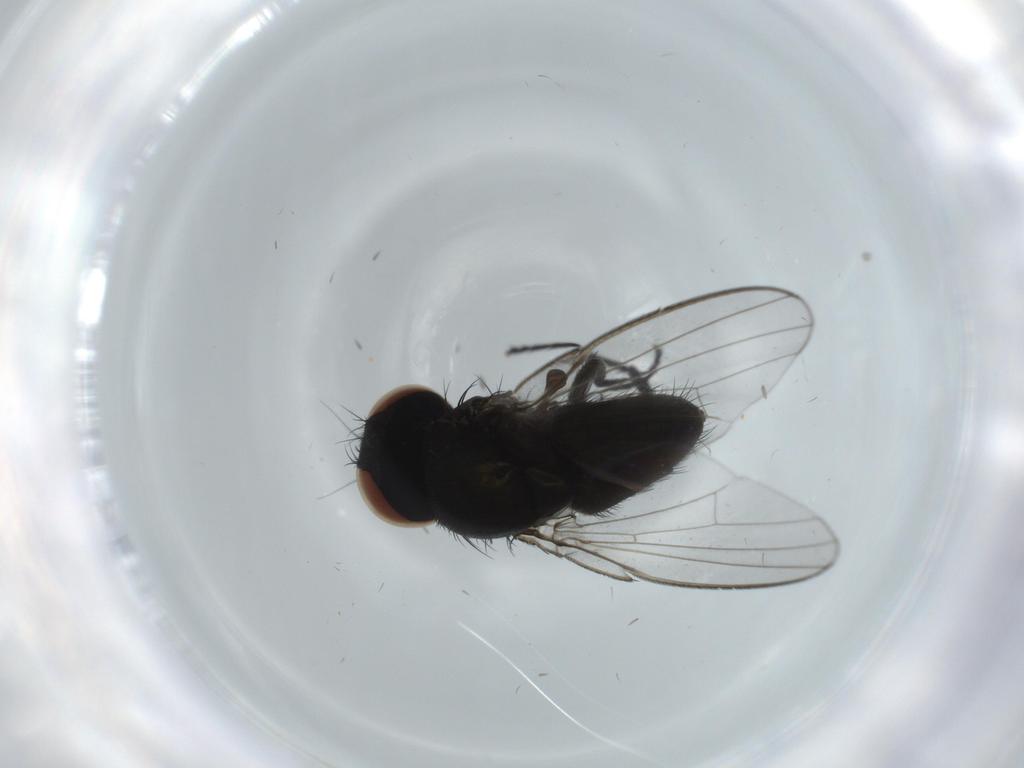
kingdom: Animalia
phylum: Arthropoda
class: Insecta
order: Diptera
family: Milichiidae
